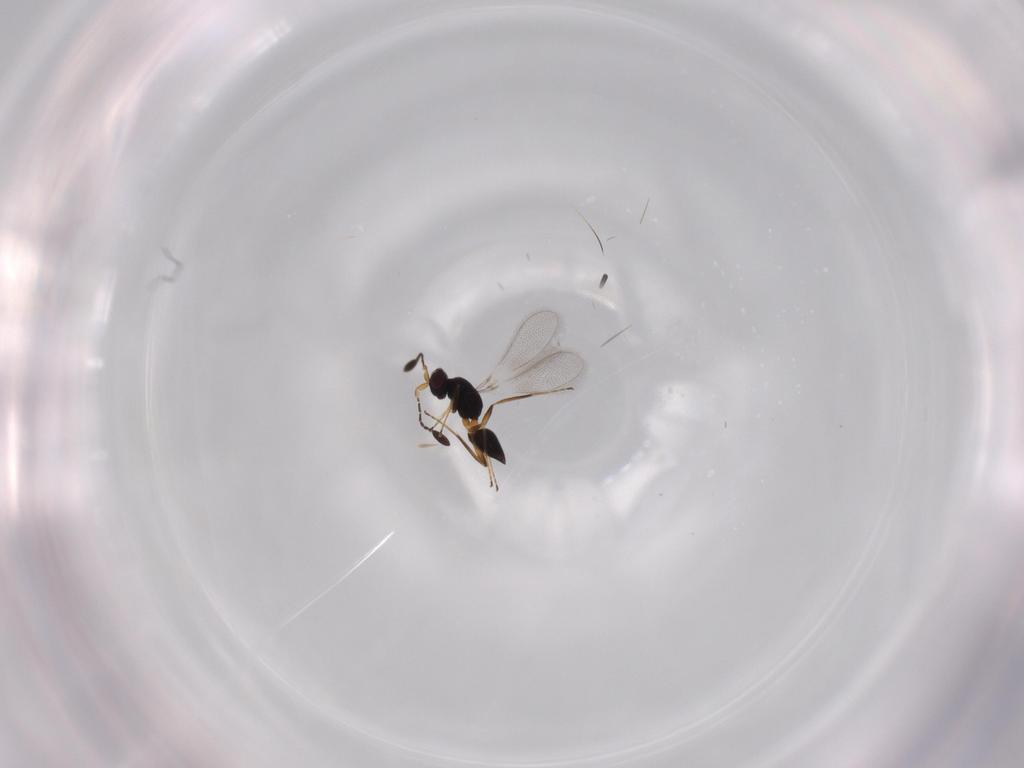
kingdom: Animalia
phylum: Arthropoda
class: Insecta
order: Hymenoptera
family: Mymaridae
